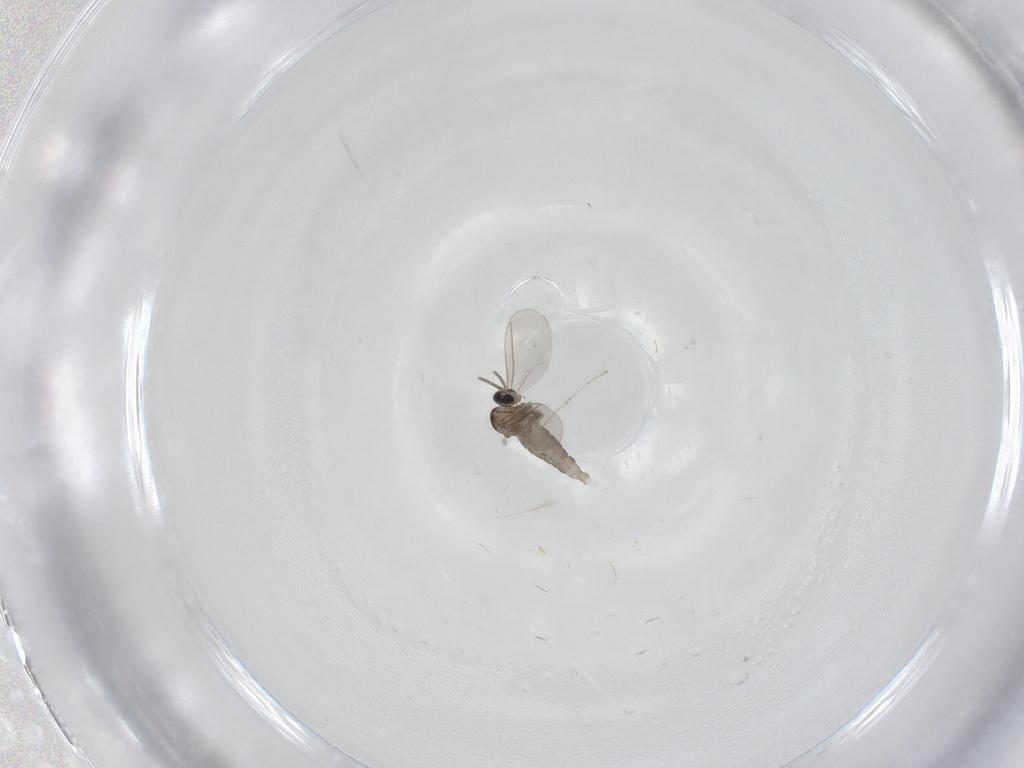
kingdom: Animalia
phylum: Arthropoda
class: Insecta
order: Diptera
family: Cecidomyiidae
